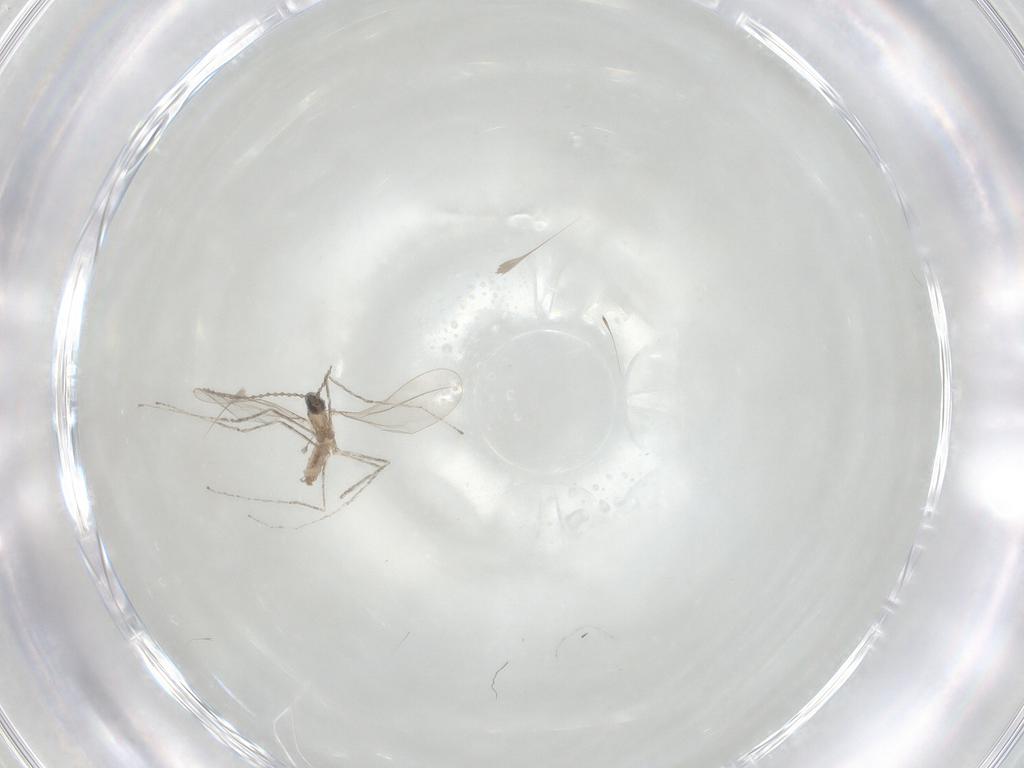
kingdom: Animalia
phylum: Arthropoda
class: Insecta
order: Diptera
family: Cecidomyiidae
